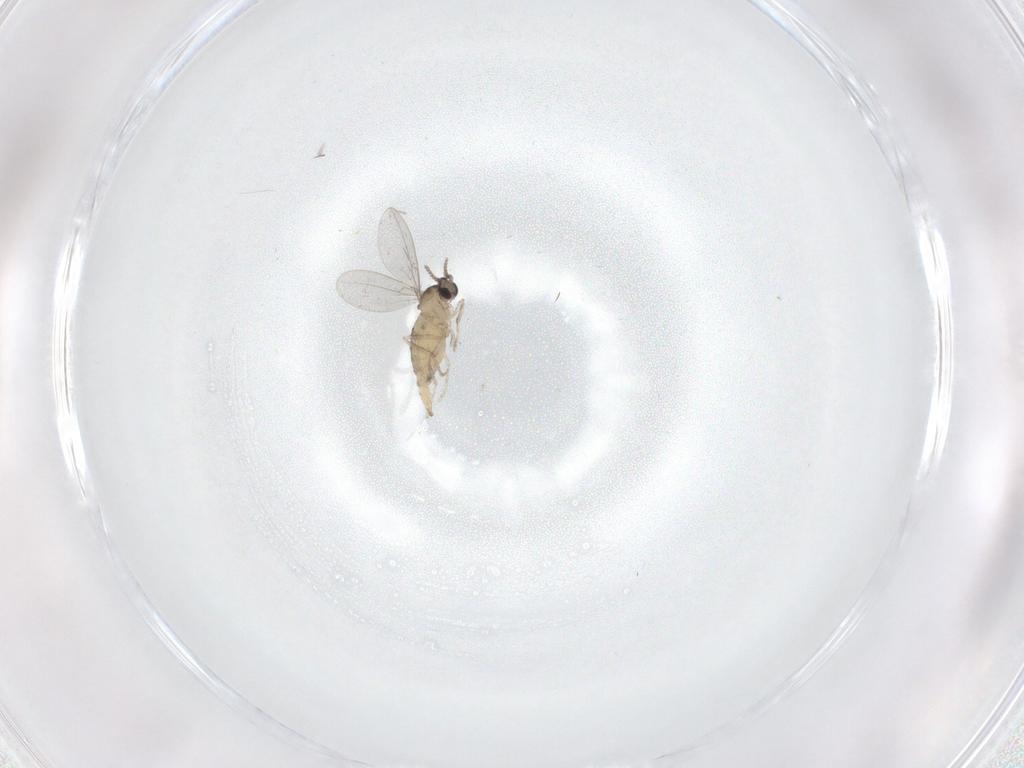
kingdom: Animalia
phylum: Arthropoda
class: Insecta
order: Diptera
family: Cecidomyiidae
